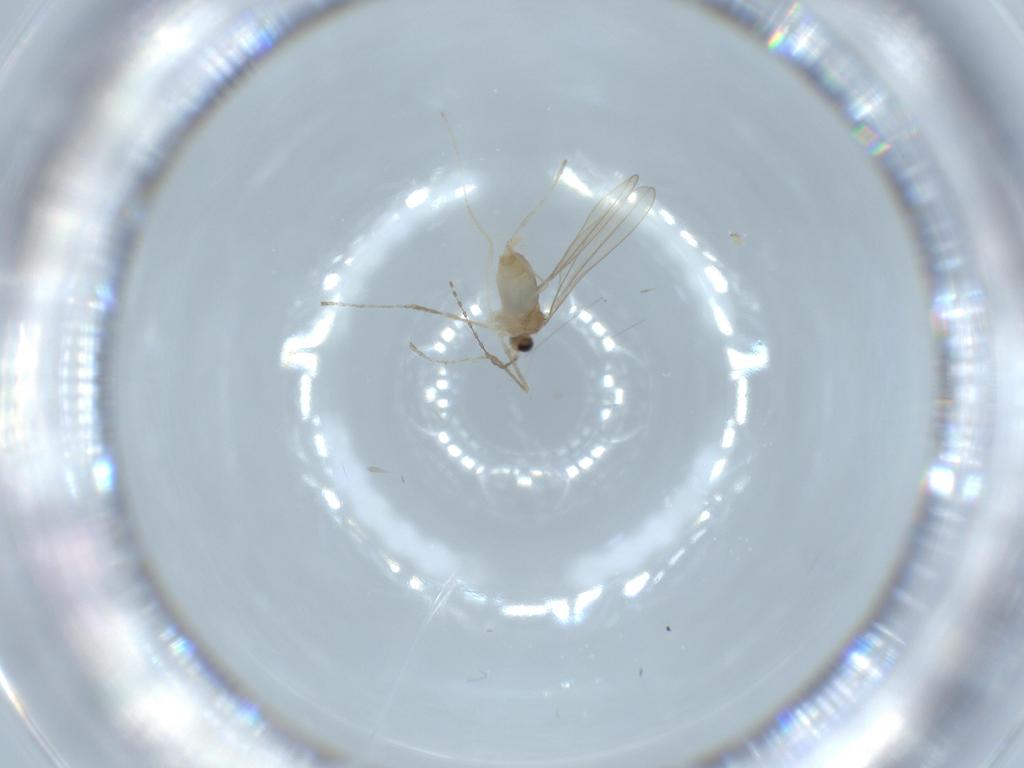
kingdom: Animalia
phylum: Arthropoda
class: Insecta
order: Diptera
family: Cecidomyiidae
